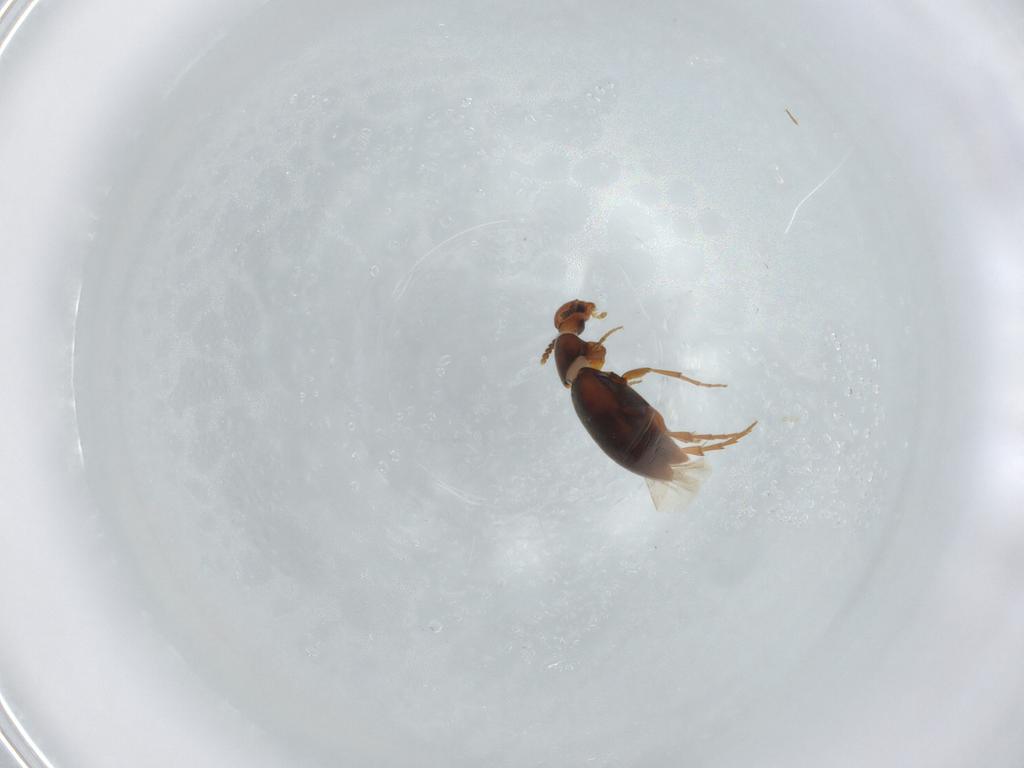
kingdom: Animalia
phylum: Arthropoda
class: Insecta
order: Coleoptera
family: Scraptiidae
